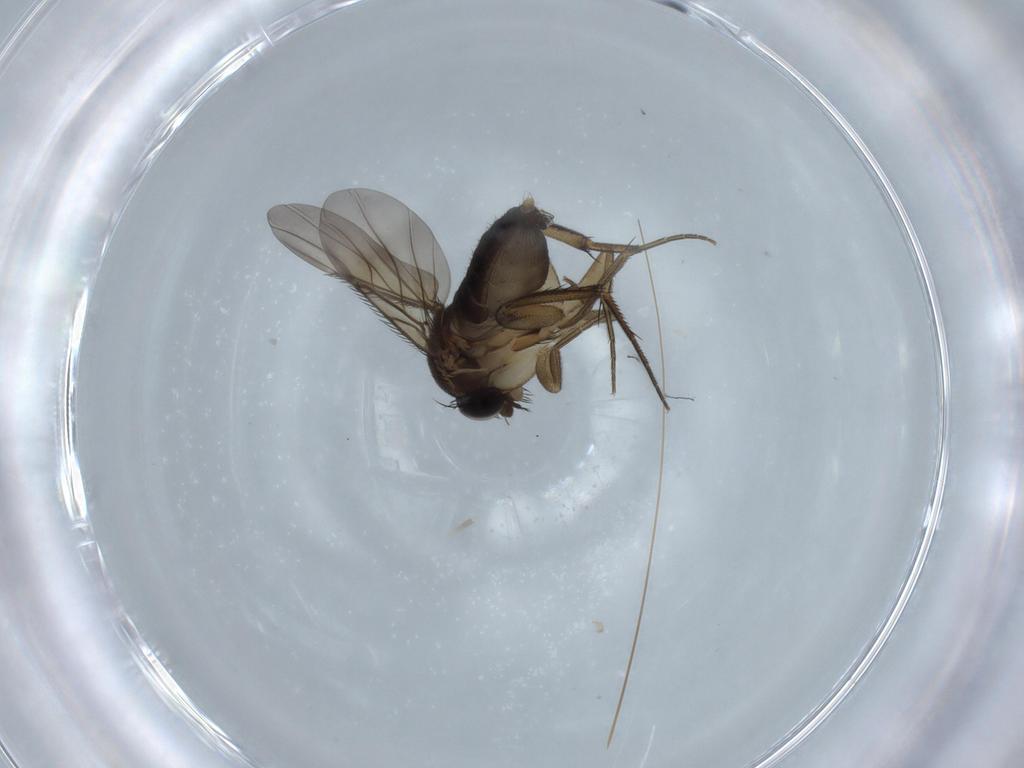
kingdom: Animalia
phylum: Arthropoda
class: Insecta
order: Diptera
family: Phoridae
